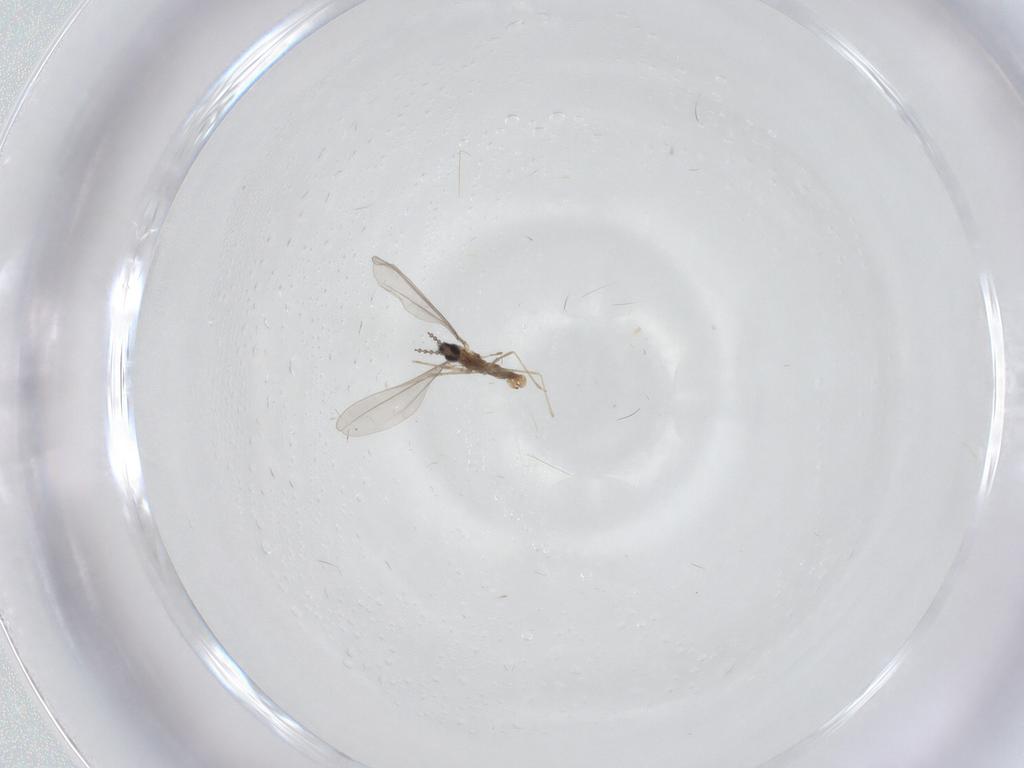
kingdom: Animalia
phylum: Arthropoda
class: Insecta
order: Diptera
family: Cecidomyiidae
